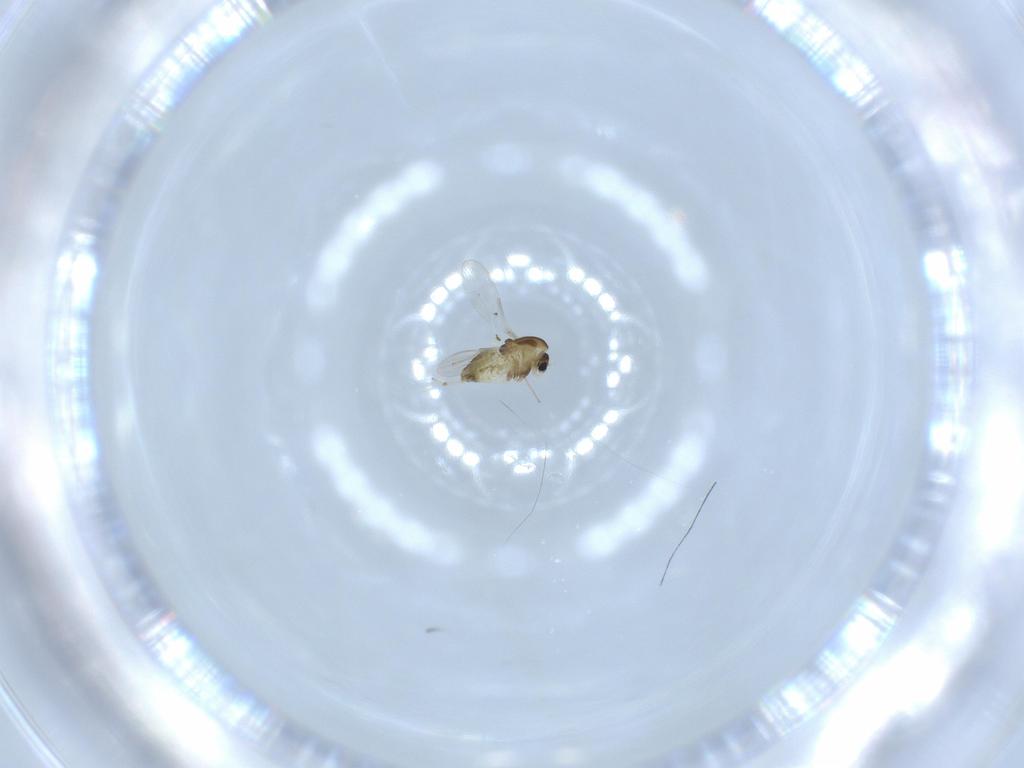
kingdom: Animalia
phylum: Arthropoda
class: Insecta
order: Diptera
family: Chironomidae
